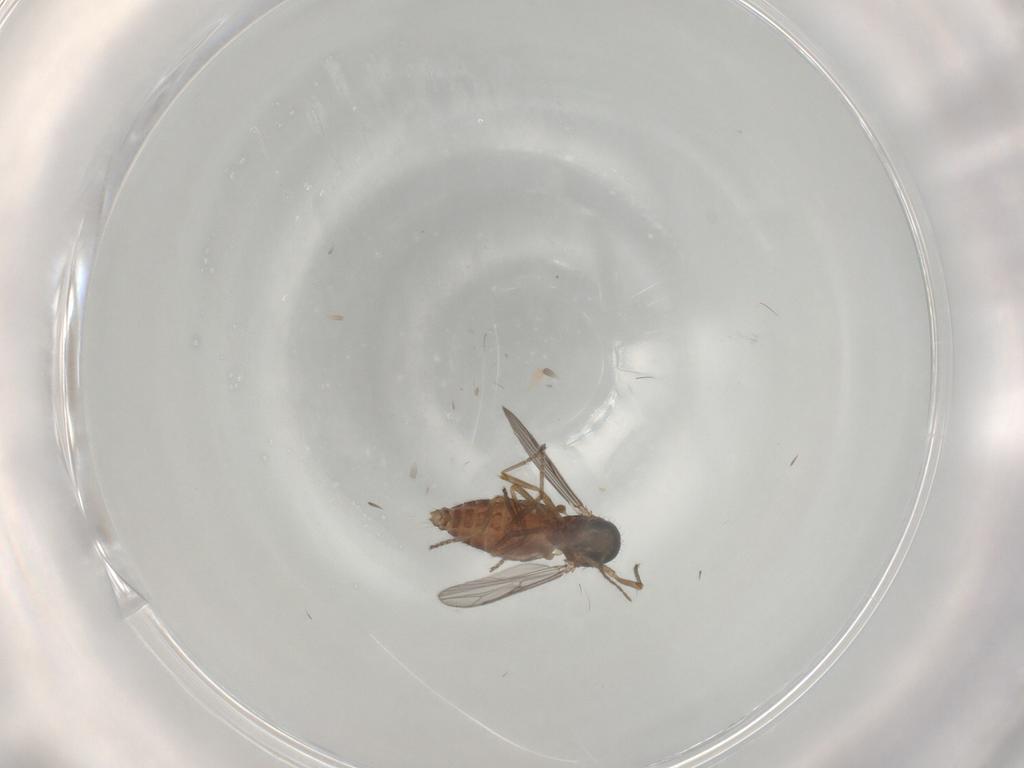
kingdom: Animalia
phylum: Arthropoda
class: Insecta
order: Diptera
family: Ceratopogonidae
